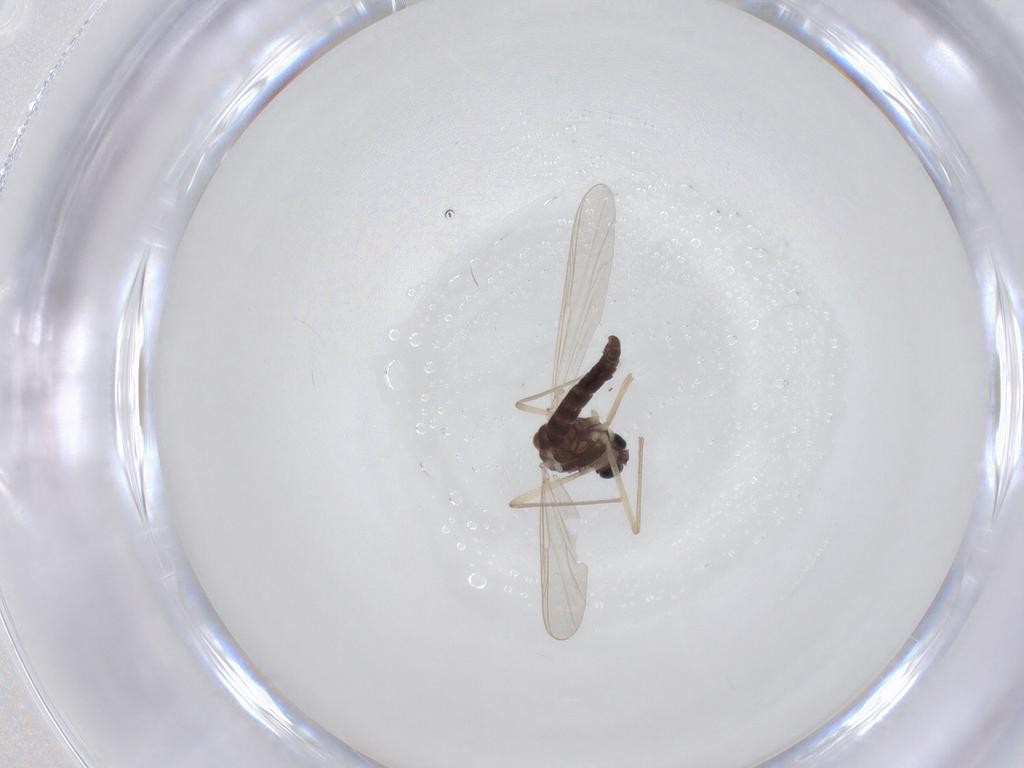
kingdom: Animalia
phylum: Arthropoda
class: Insecta
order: Diptera
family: Chironomidae
